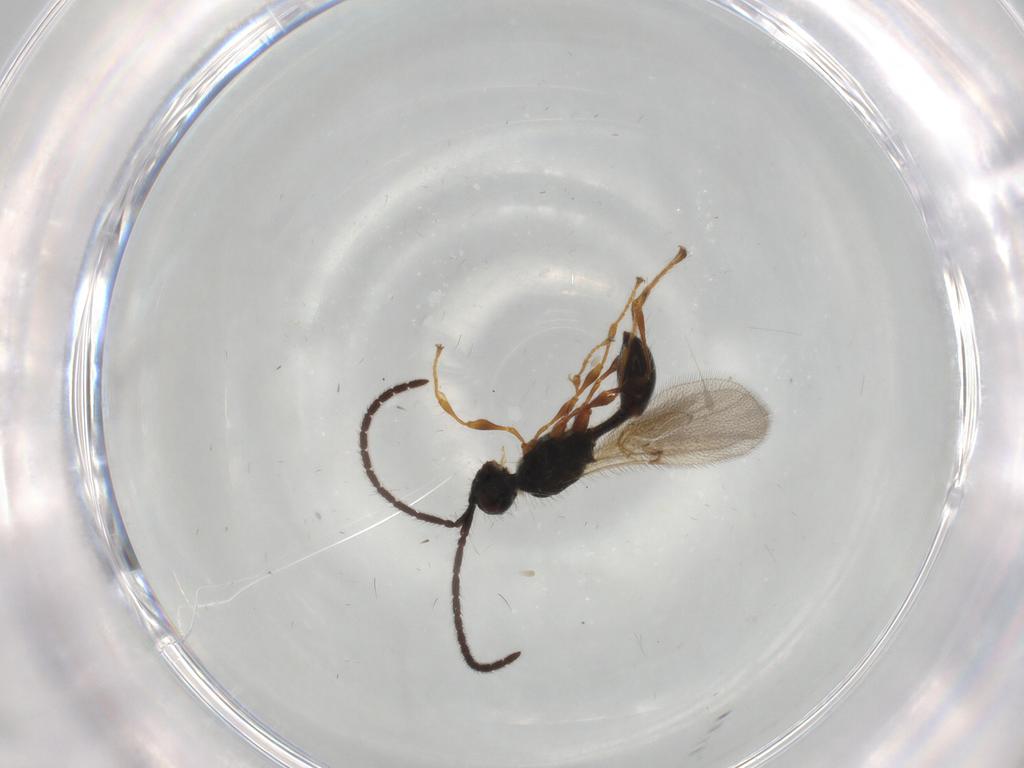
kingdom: Animalia
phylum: Arthropoda
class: Insecta
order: Hymenoptera
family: Diapriidae
